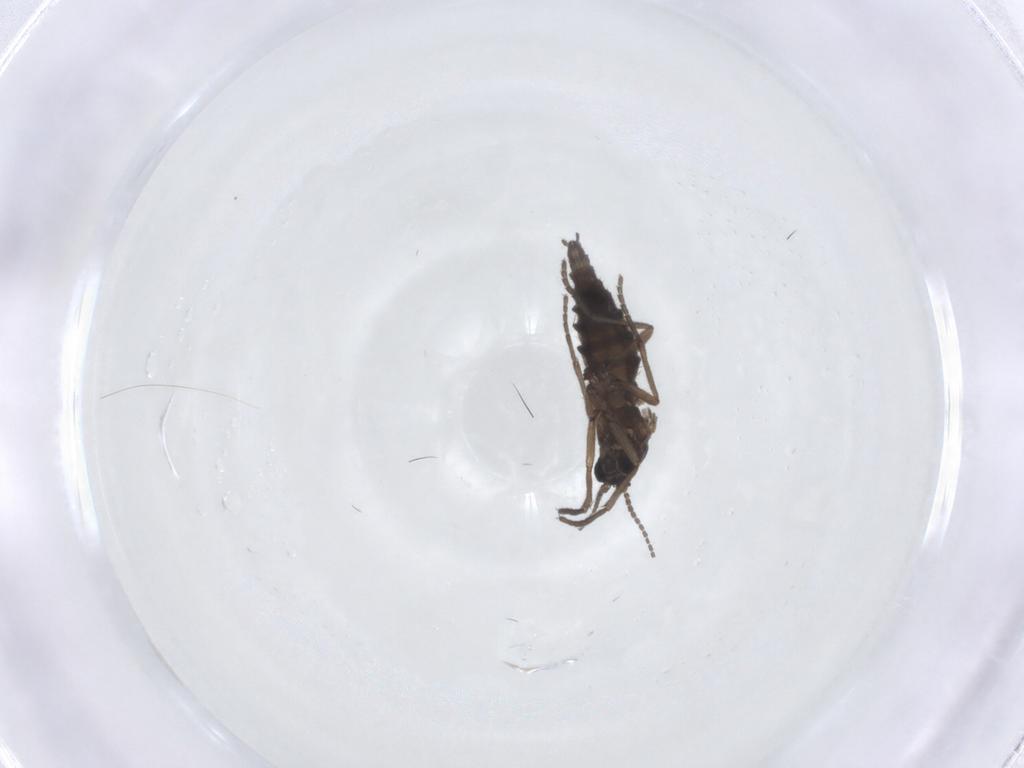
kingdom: Animalia
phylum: Arthropoda
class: Insecta
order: Diptera
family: Sciaridae
